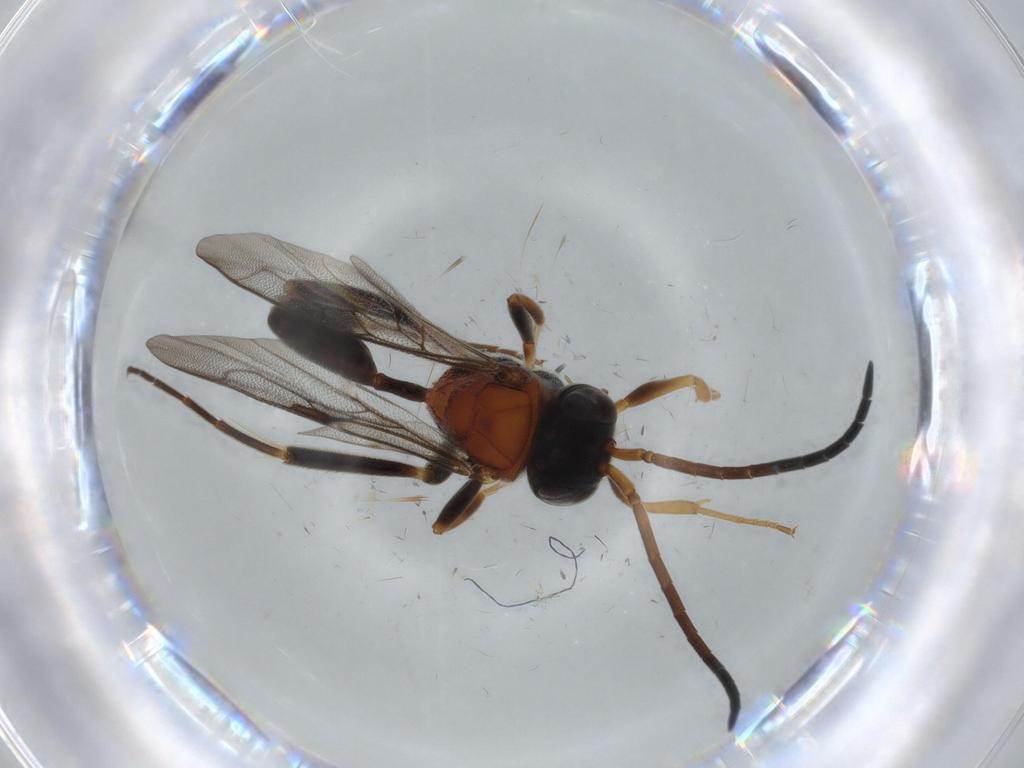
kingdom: Animalia
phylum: Arthropoda
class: Insecta
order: Hymenoptera
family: Evaniidae
